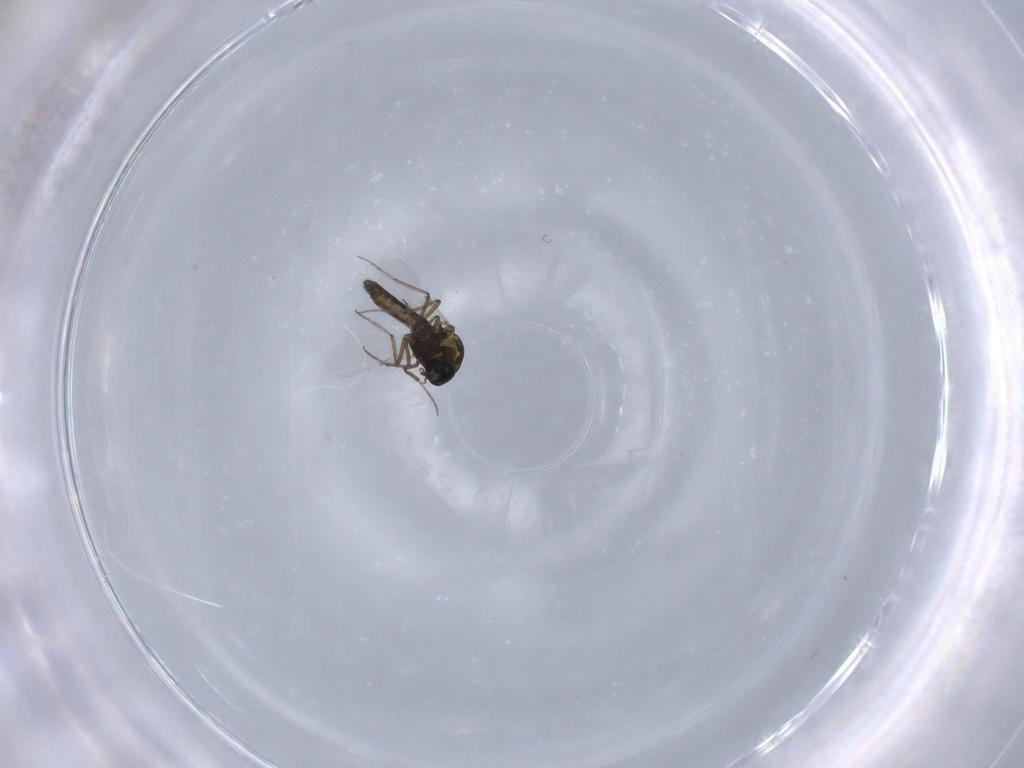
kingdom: Animalia
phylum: Arthropoda
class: Insecta
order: Diptera
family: Ceratopogonidae
